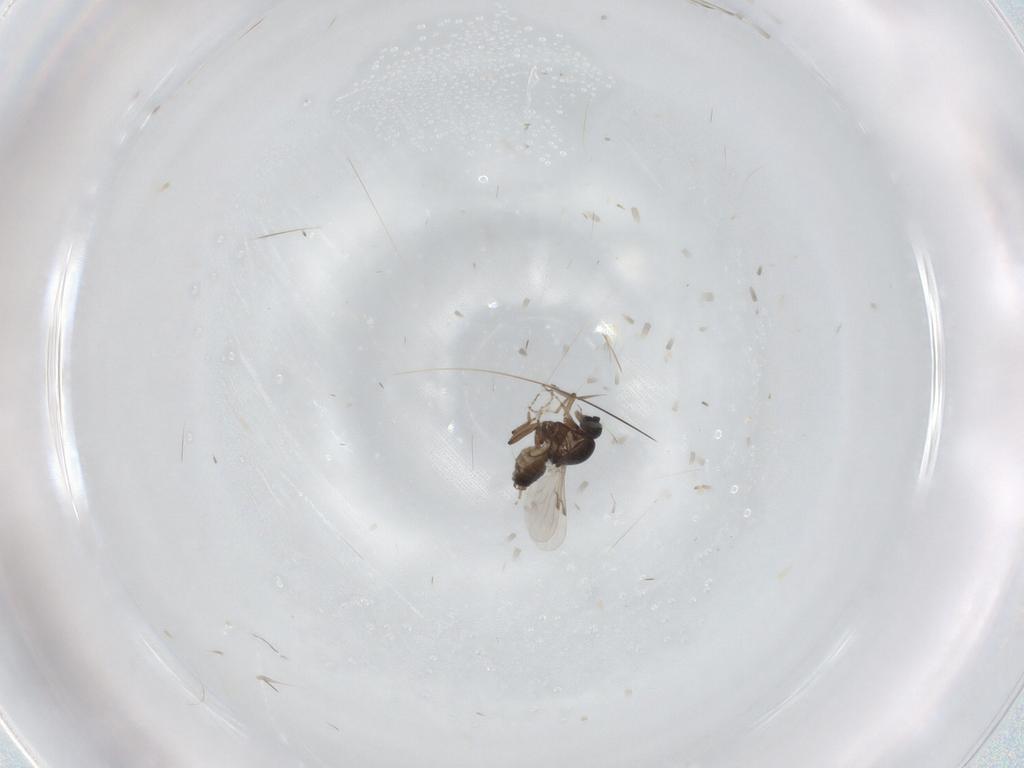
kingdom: Animalia
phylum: Arthropoda
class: Insecta
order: Diptera
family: Ceratopogonidae
